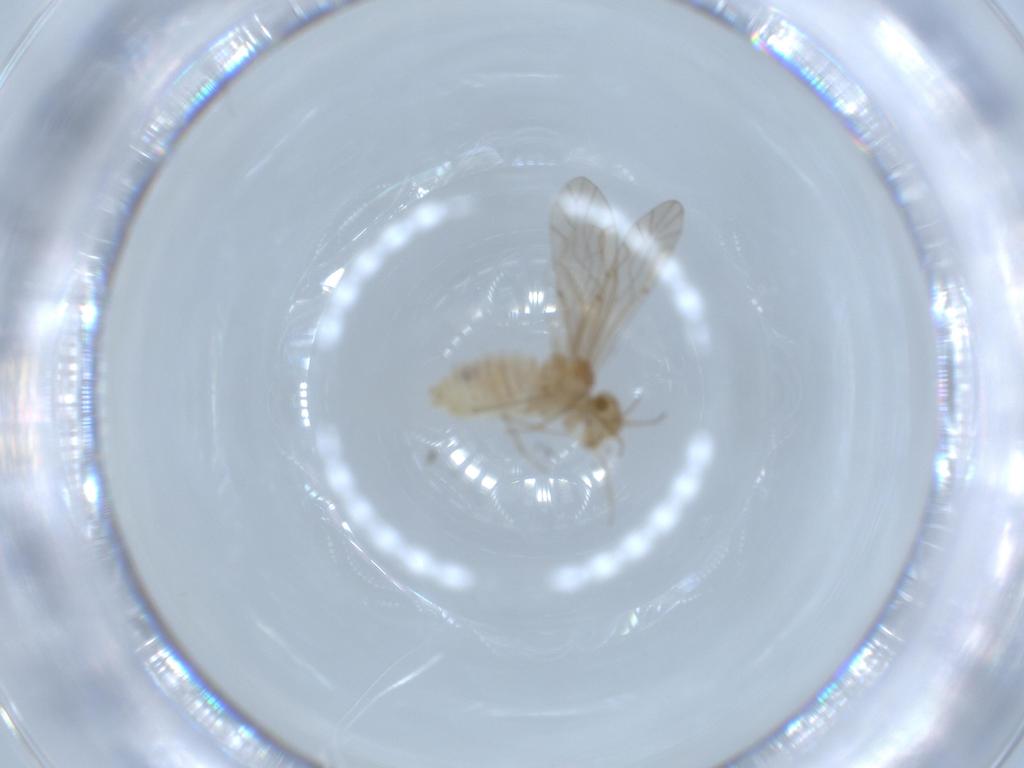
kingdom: Animalia
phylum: Arthropoda
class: Insecta
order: Psocodea
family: Lachesillidae
